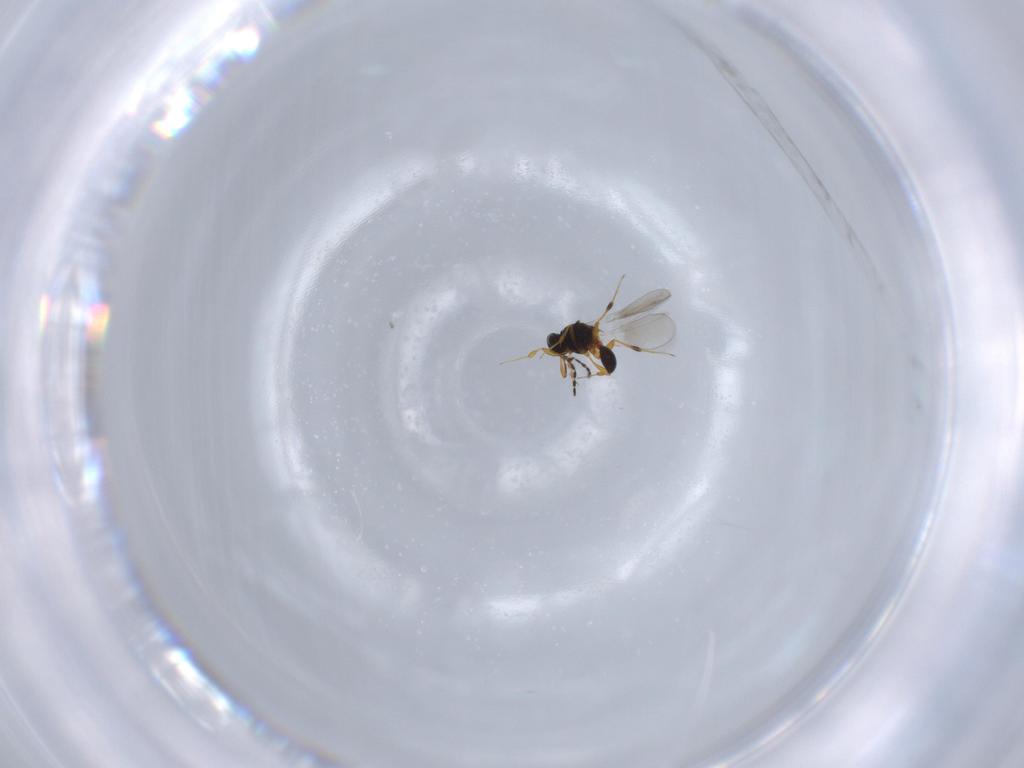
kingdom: Animalia
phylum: Arthropoda
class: Insecta
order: Hymenoptera
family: Platygastridae
